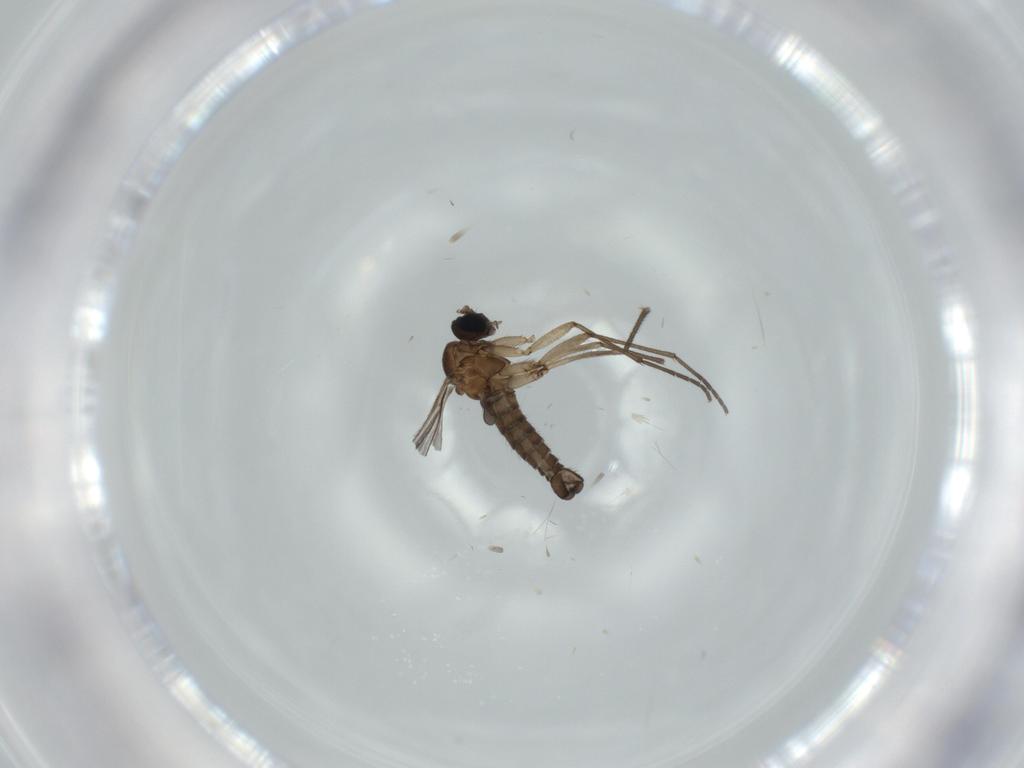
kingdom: Animalia
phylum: Arthropoda
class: Insecta
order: Diptera
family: Sciaridae
